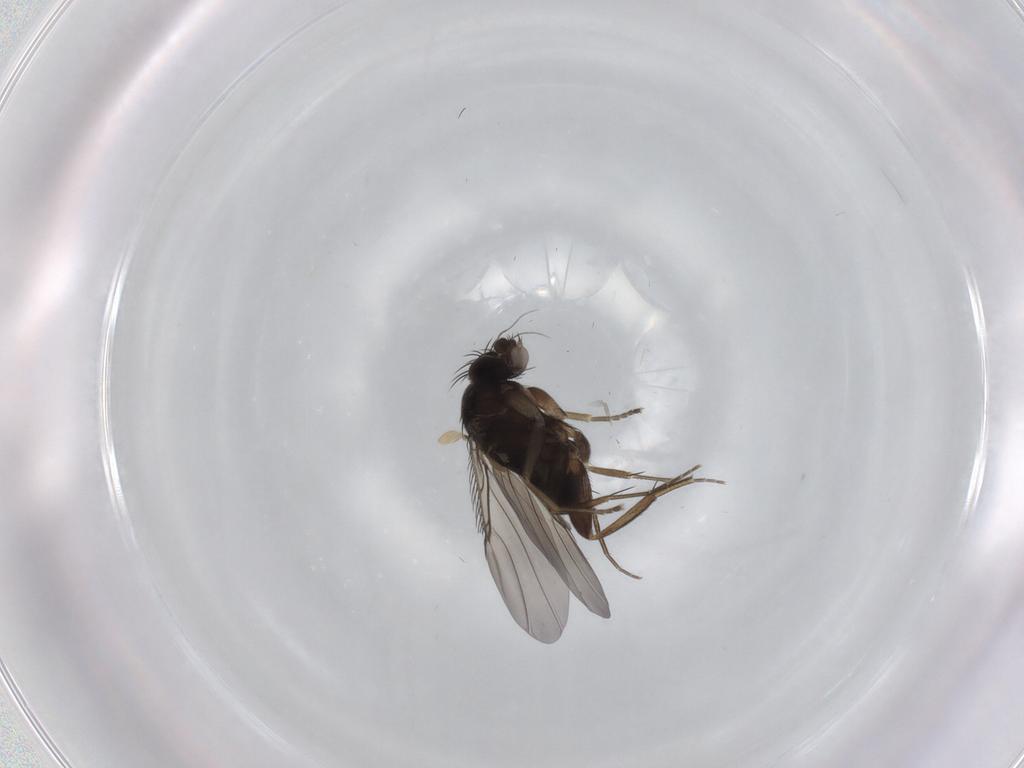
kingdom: Animalia
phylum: Arthropoda
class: Insecta
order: Diptera
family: Phoridae
